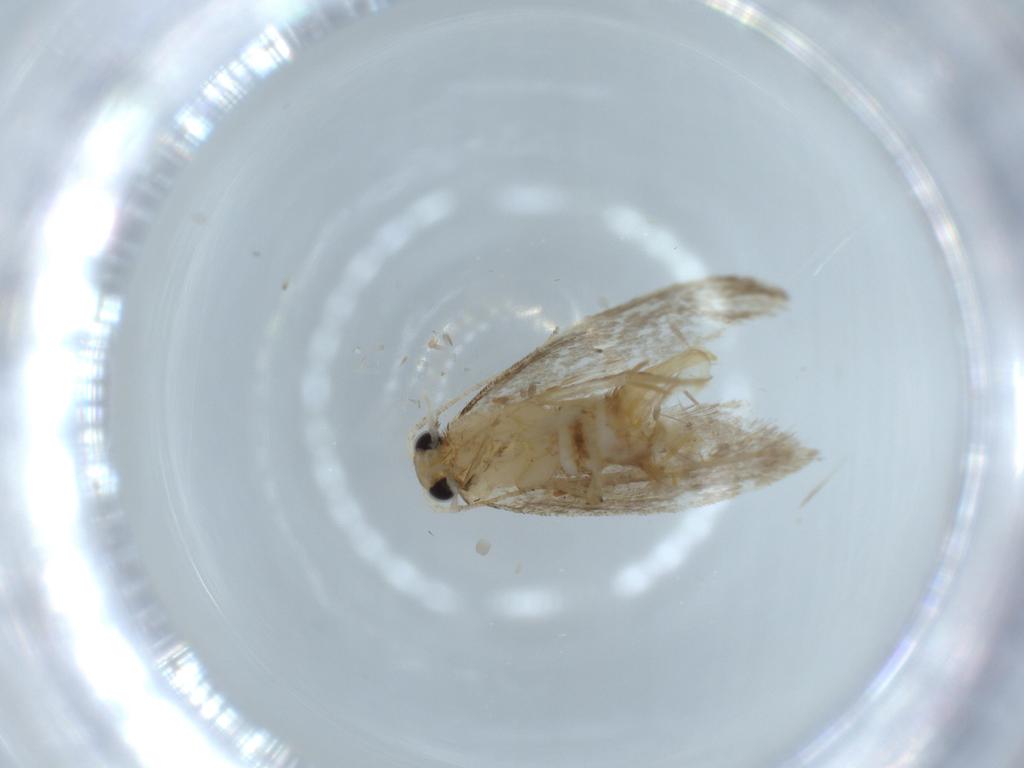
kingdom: Animalia
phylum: Arthropoda
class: Insecta
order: Lepidoptera
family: Tineidae
